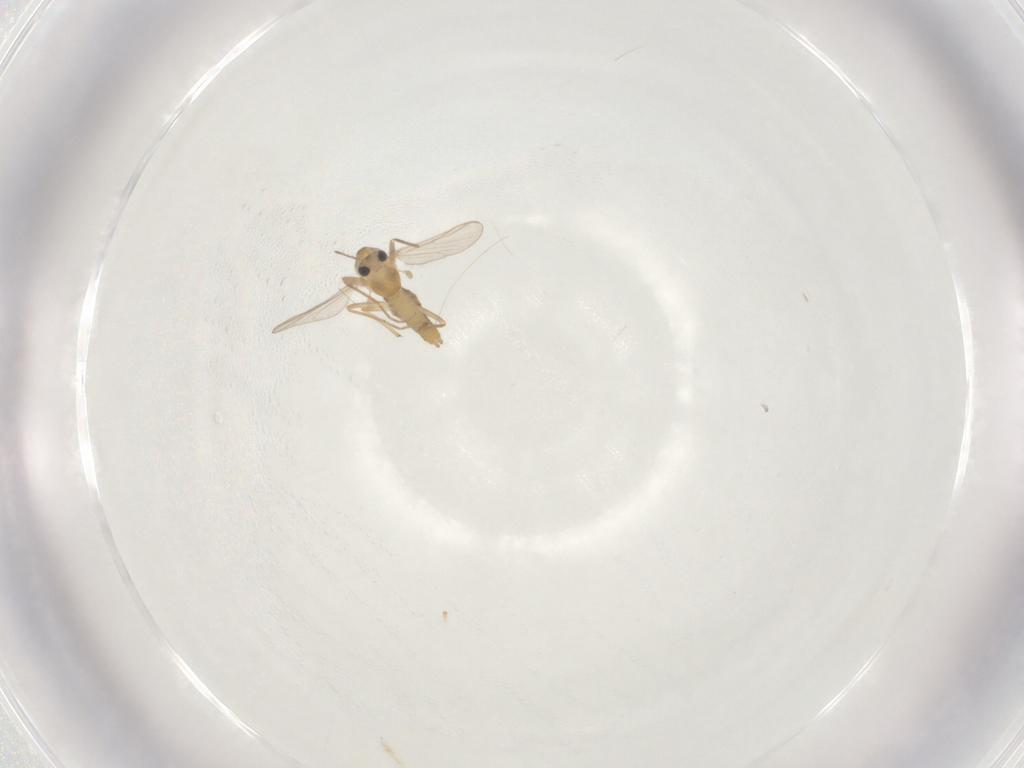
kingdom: Animalia
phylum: Arthropoda
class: Insecta
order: Diptera
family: Chironomidae
